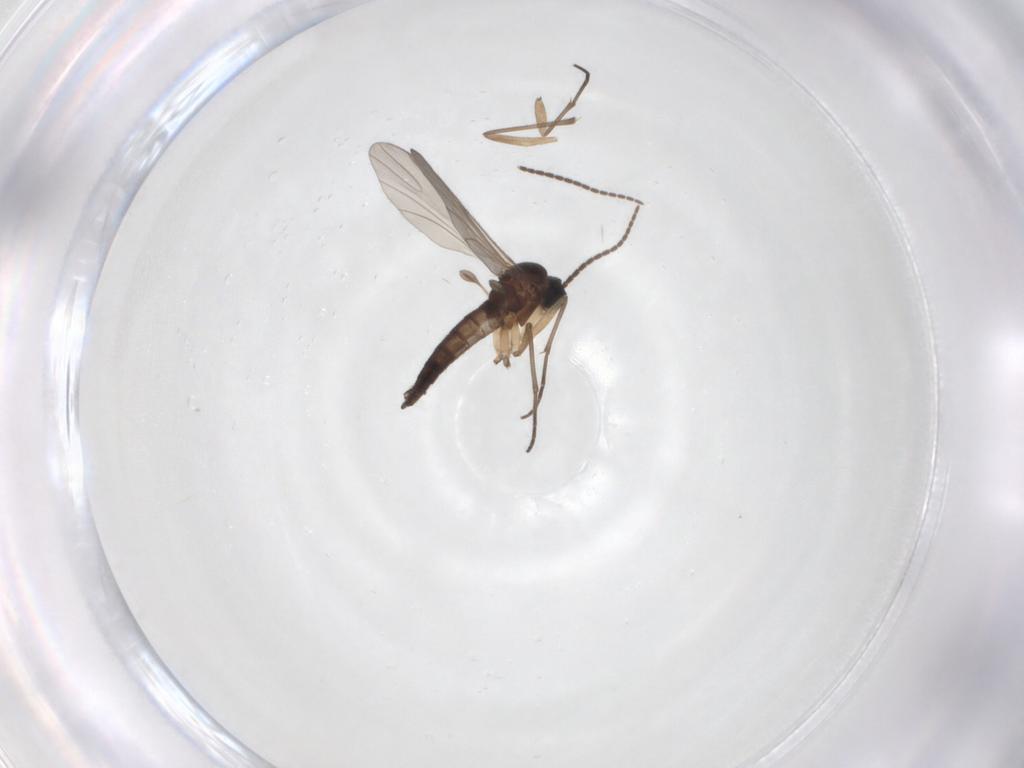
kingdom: Animalia
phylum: Arthropoda
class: Insecta
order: Diptera
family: Sciaridae
